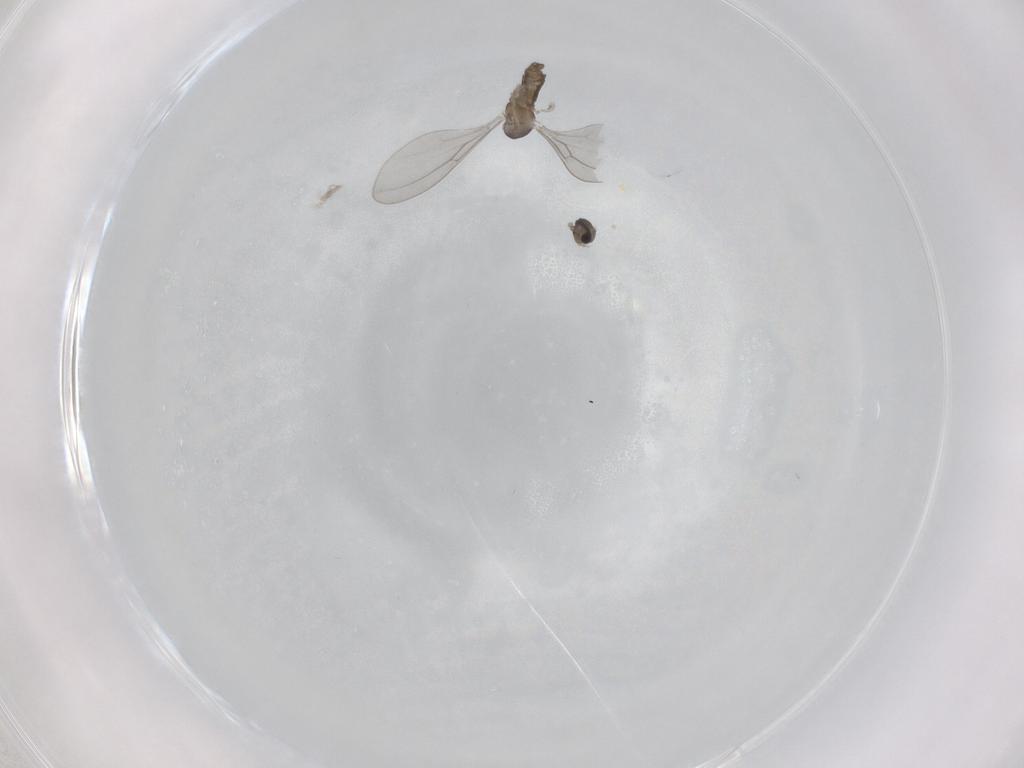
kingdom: Animalia
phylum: Arthropoda
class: Insecta
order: Diptera
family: Cecidomyiidae
